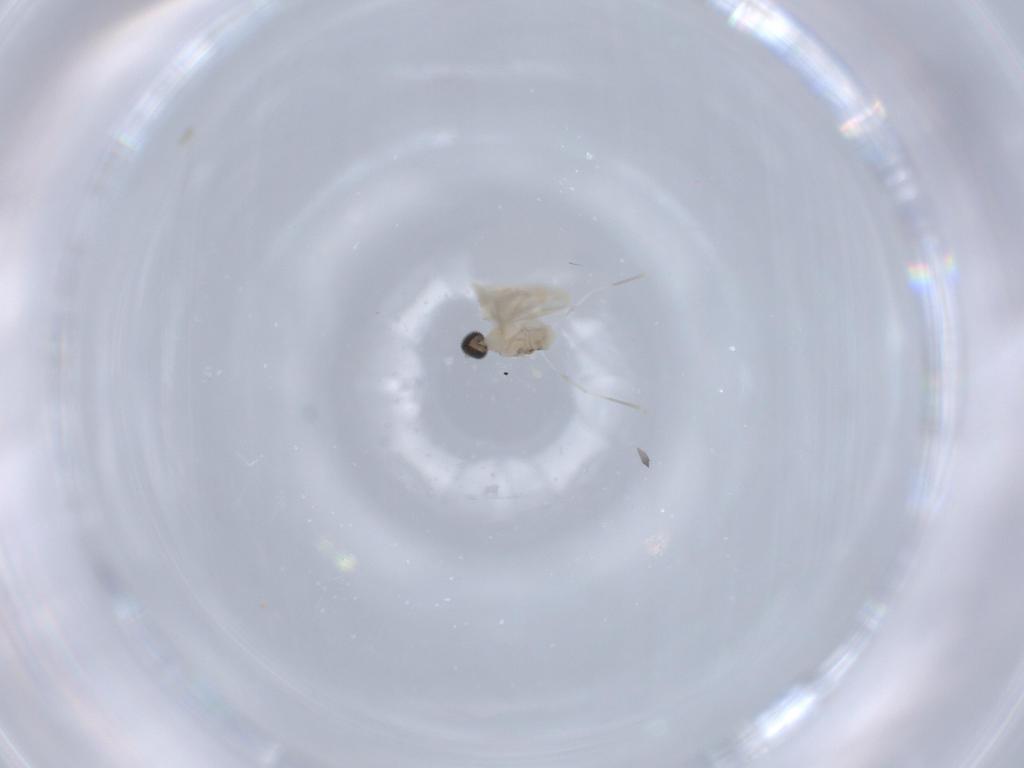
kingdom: Animalia
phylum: Arthropoda
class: Insecta
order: Diptera
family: Cecidomyiidae
